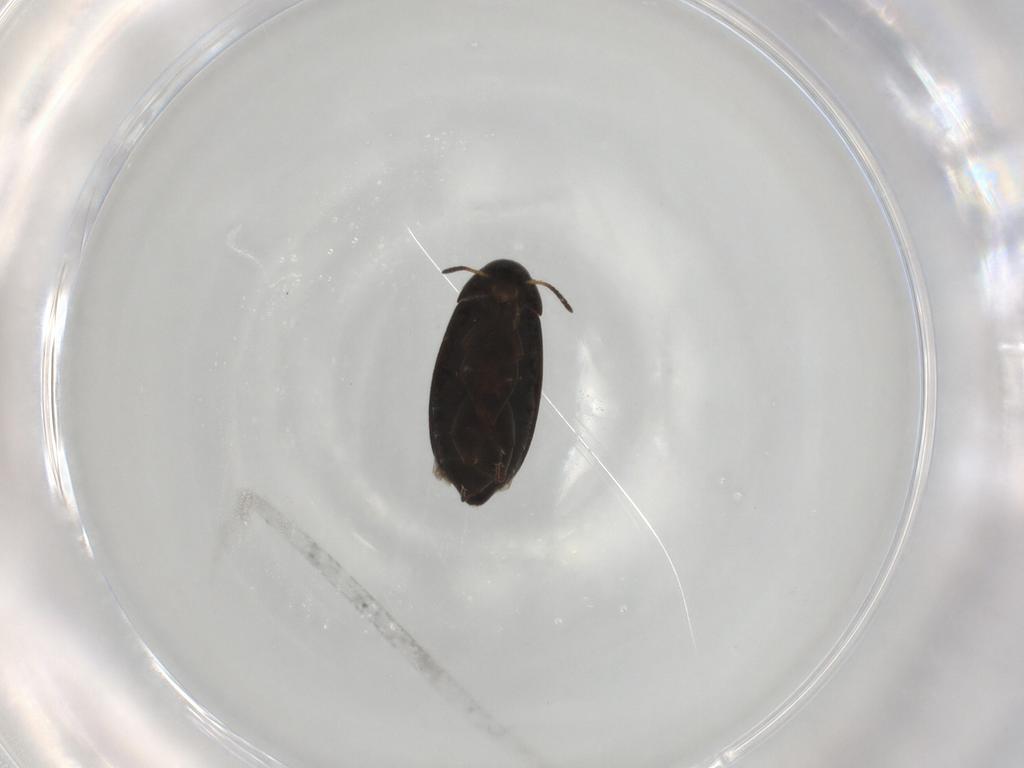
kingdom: Animalia
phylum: Arthropoda
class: Insecta
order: Coleoptera
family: Scraptiidae
